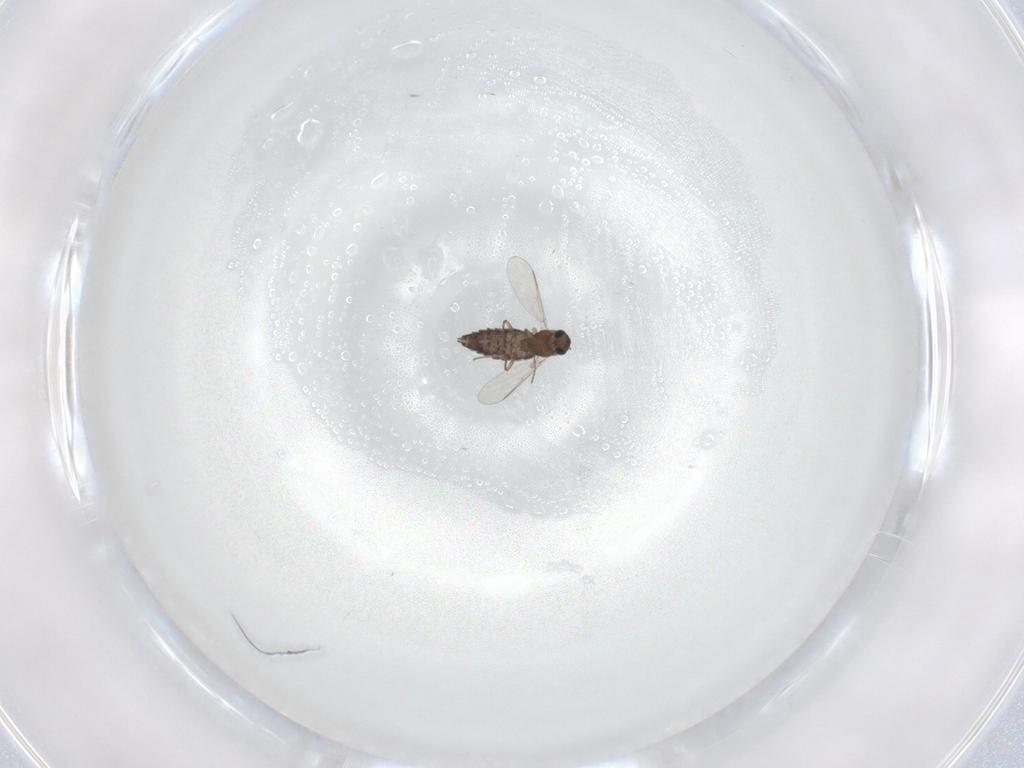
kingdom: Animalia
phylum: Arthropoda
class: Insecta
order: Diptera
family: Chironomidae
